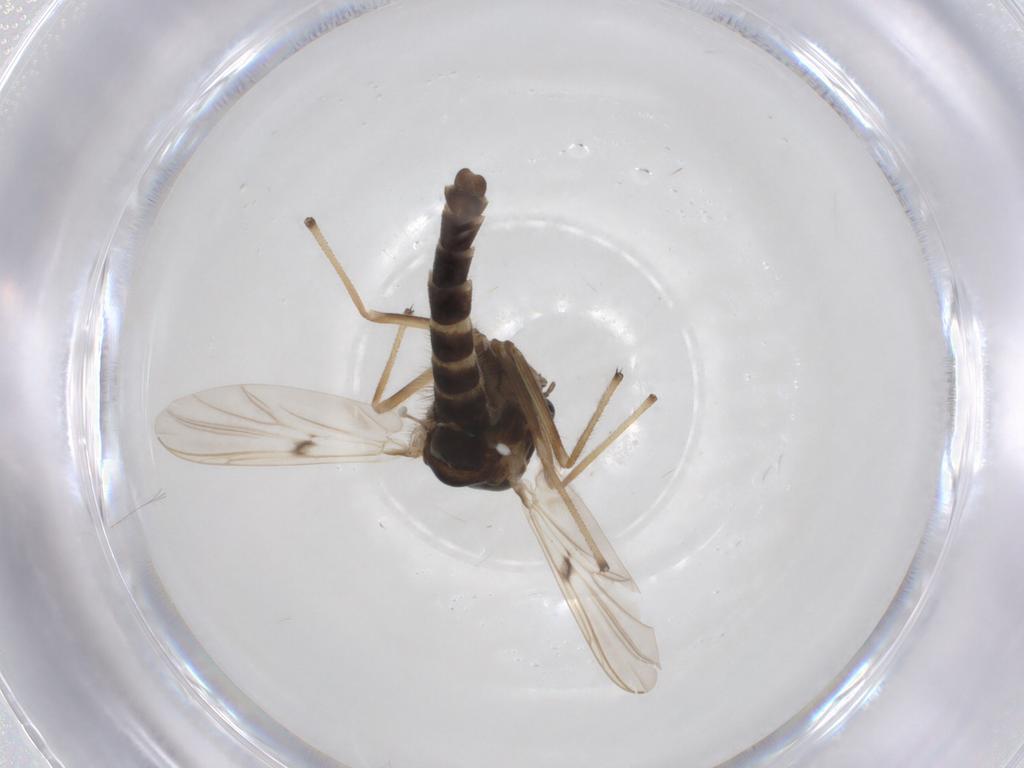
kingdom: Animalia
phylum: Arthropoda
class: Insecta
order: Diptera
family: Chironomidae
